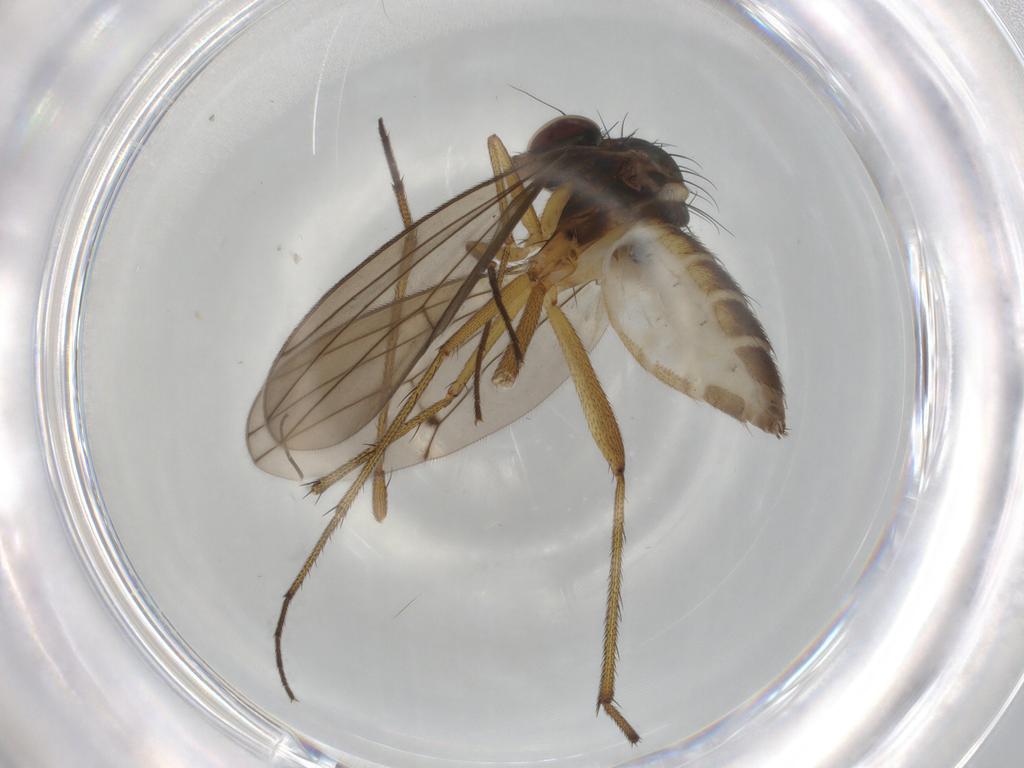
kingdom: Animalia
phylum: Arthropoda
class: Insecta
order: Diptera
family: Sciaridae
